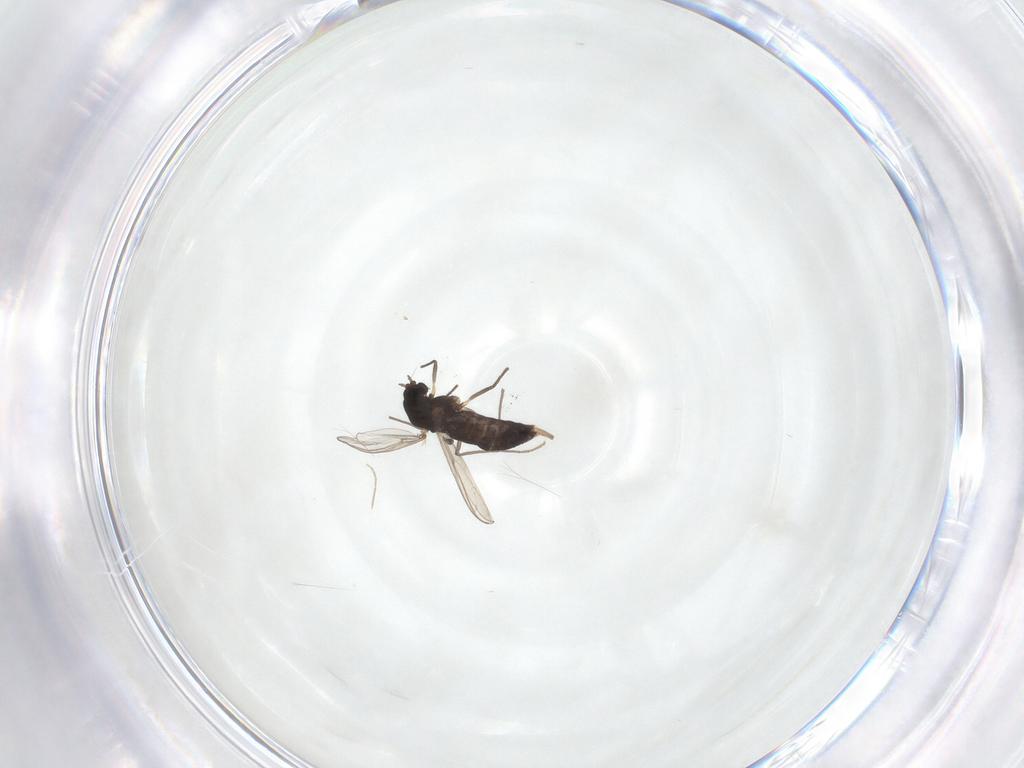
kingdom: Animalia
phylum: Arthropoda
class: Insecta
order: Diptera
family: Chironomidae
